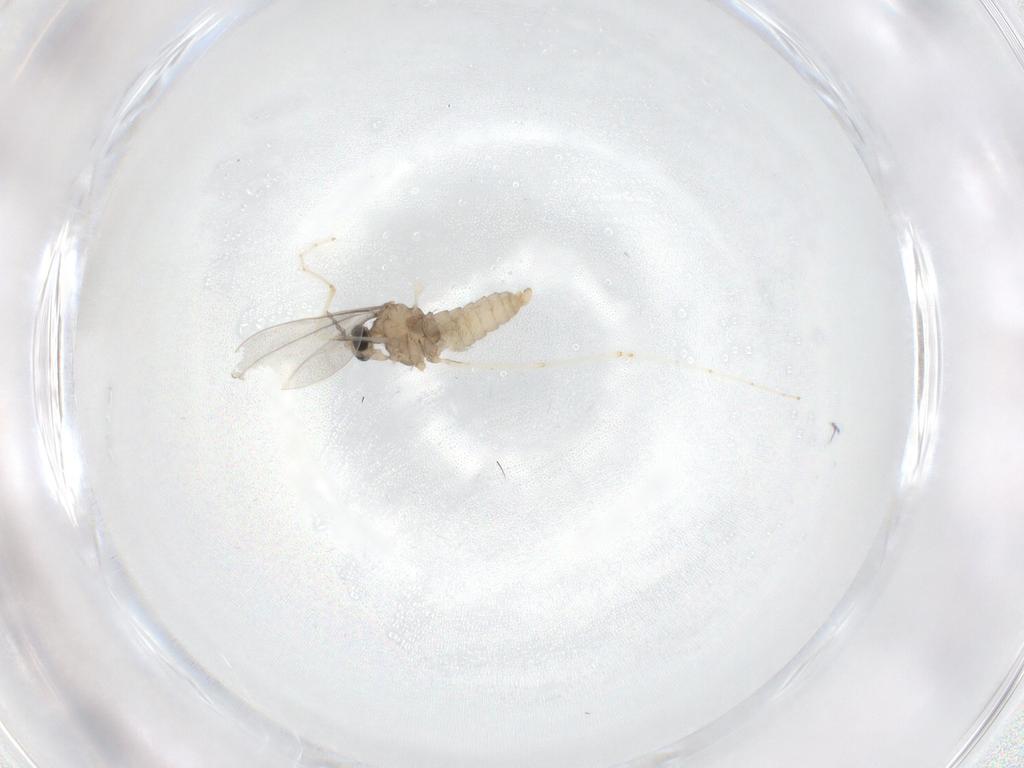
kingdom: Animalia
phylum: Arthropoda
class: Insecta
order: Diptera
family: Cecidomyiidae
